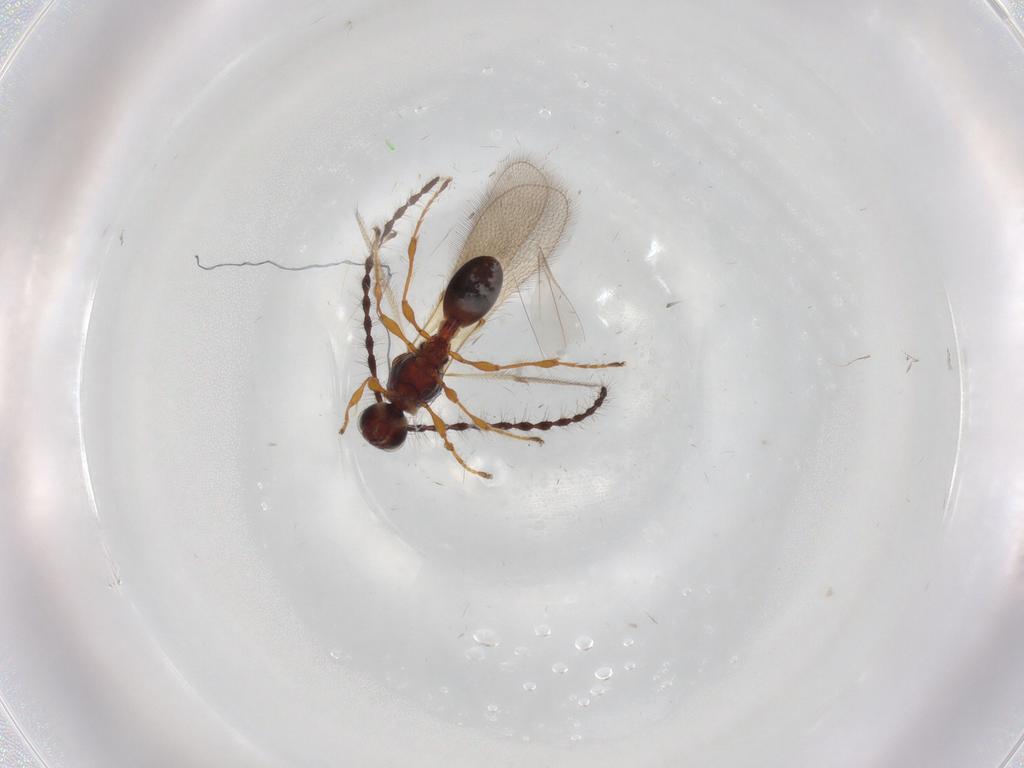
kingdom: Animalia
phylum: Arthropoda
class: Insecta
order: Hymenoptera
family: Diapriidae
